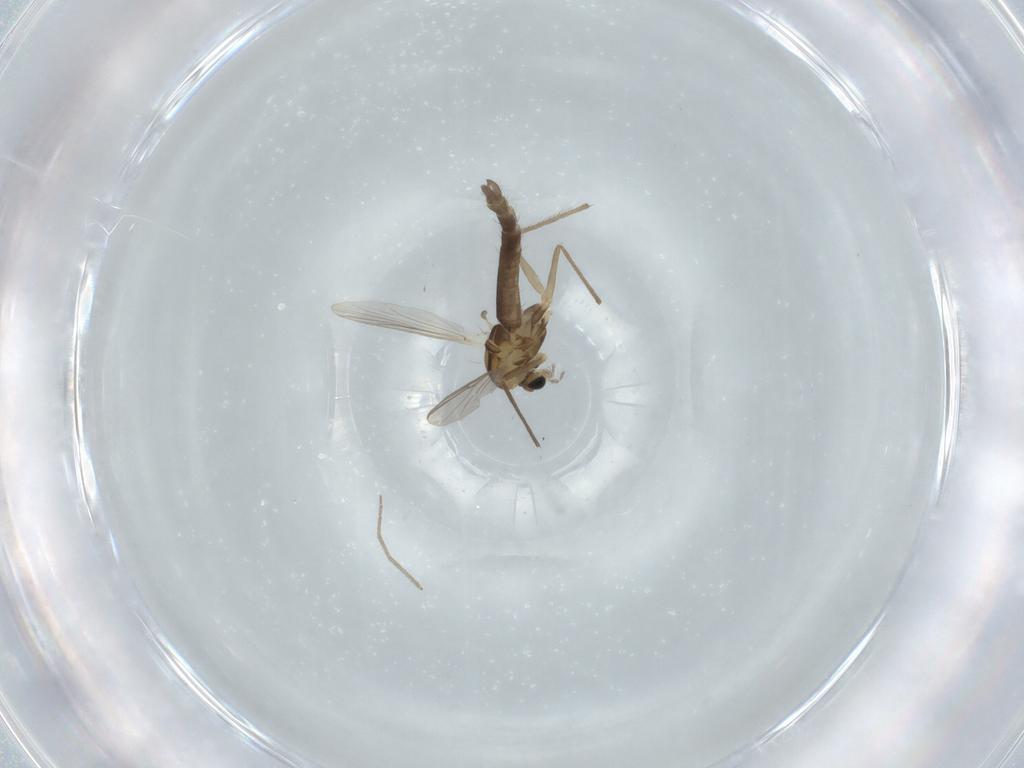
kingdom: Animalia
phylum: Arthropoda
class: Insecta
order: Diptera
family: Chironomidae
